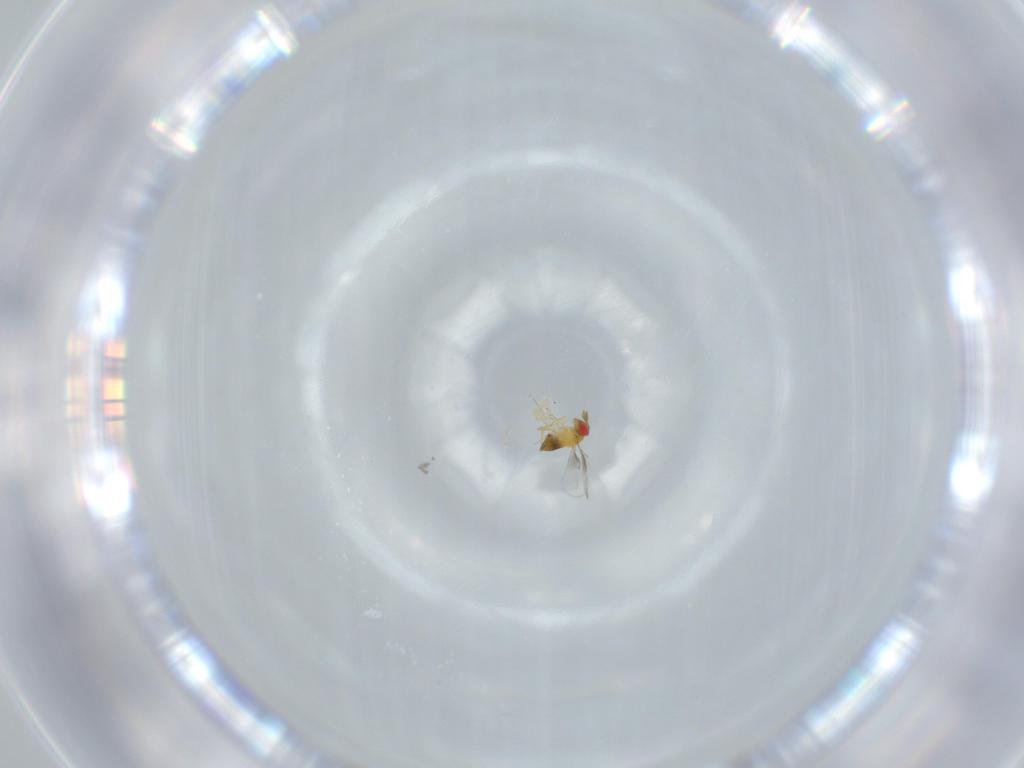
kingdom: Animalia
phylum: Arthropoda
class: Insecta
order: Hymenoptera
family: Trichogrammatidae
